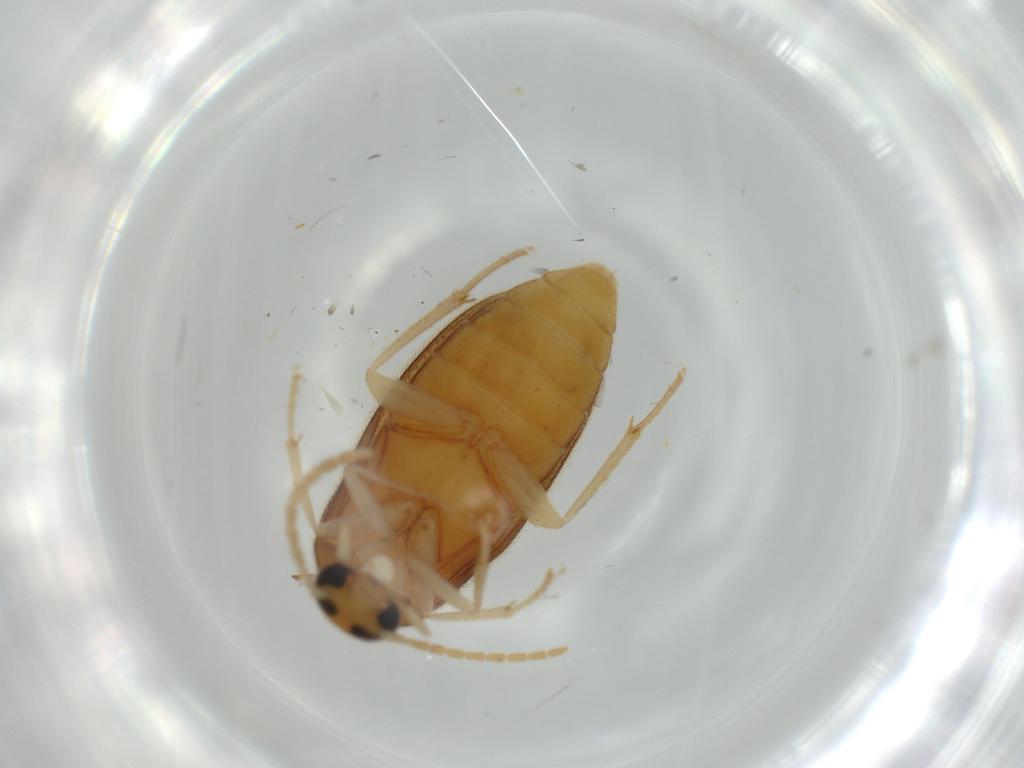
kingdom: Animalia
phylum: Arthropoda
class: Insecta
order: Coleoptera
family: Scraptiidae
